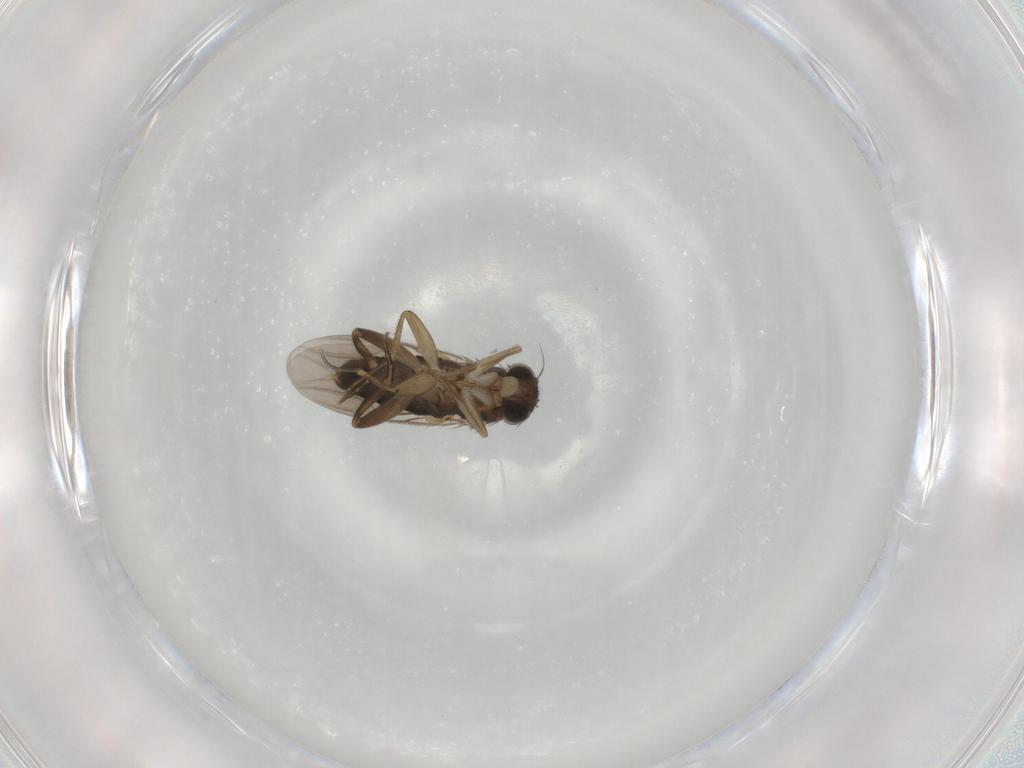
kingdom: Animalia
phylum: Arthropoda
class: Insecta
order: Diptera
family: Phoridae
